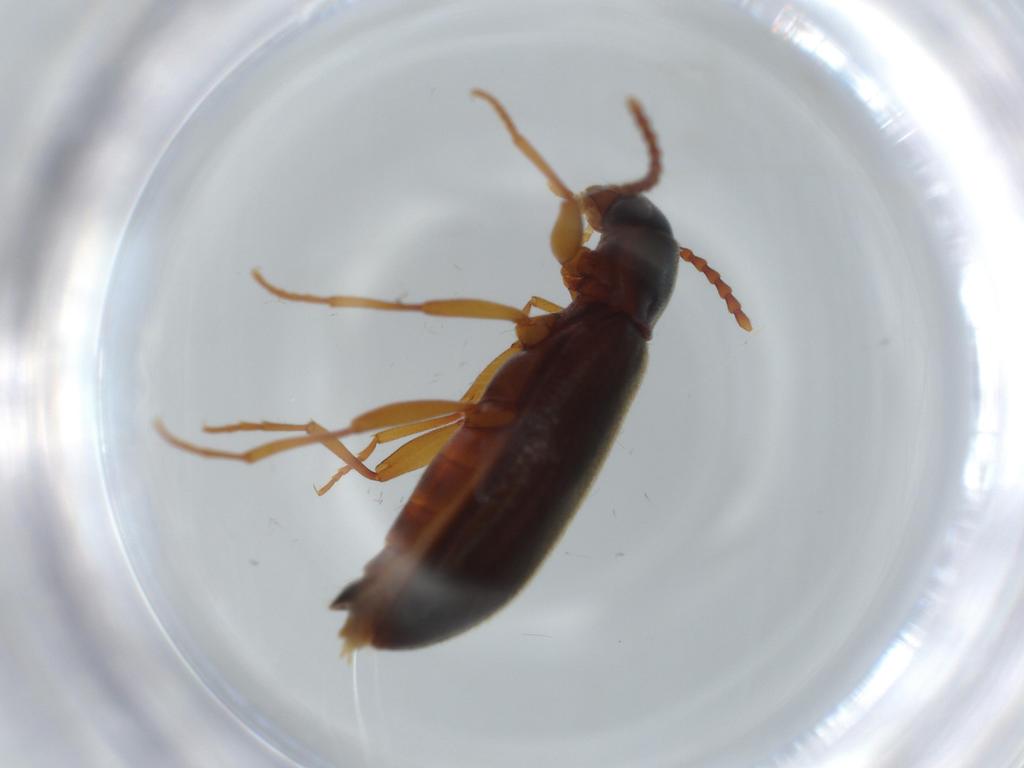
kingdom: Animalia
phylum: Arthropoda
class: Insecta
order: Coleoptera
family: Tenebrionidae
